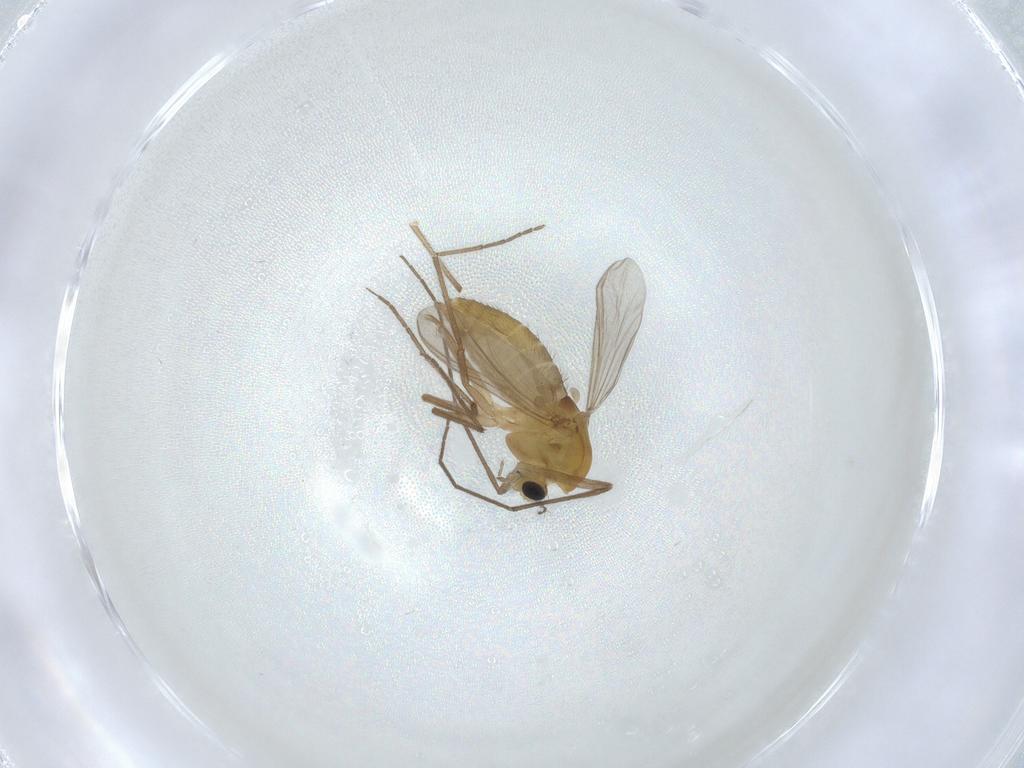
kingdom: Animalia
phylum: Arthropoda
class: Insecta
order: Diptera
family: Chironomidae
